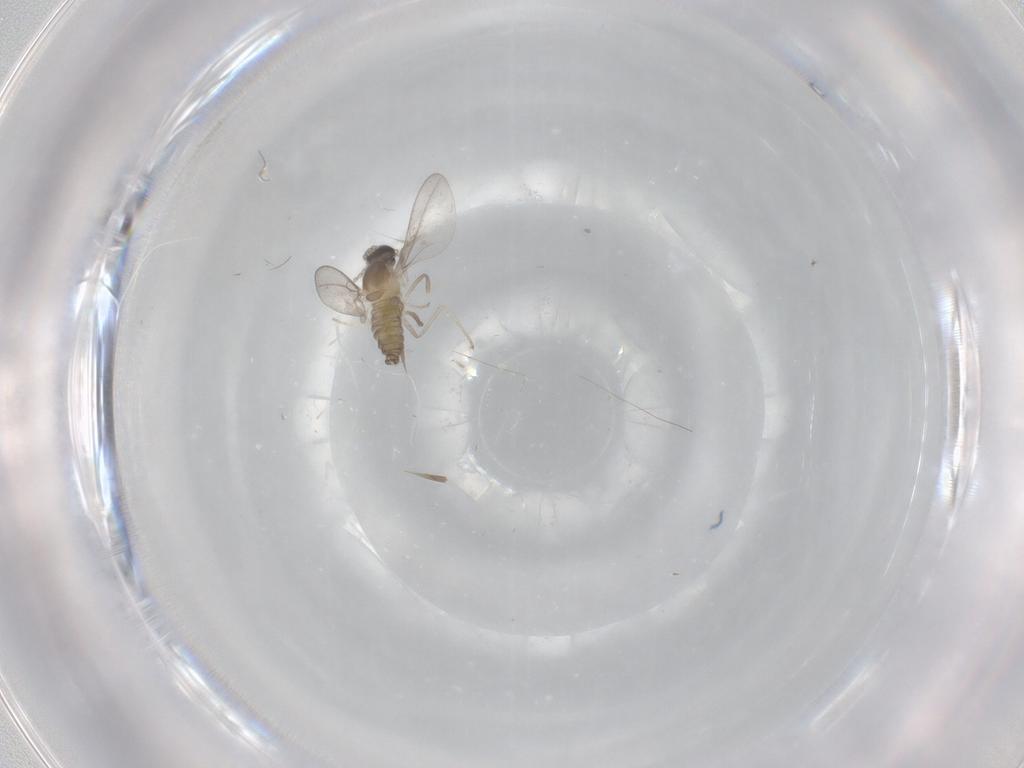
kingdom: Animalia
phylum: Arthropoda
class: Insecta
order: Diptera
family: Cecidomyiidae
